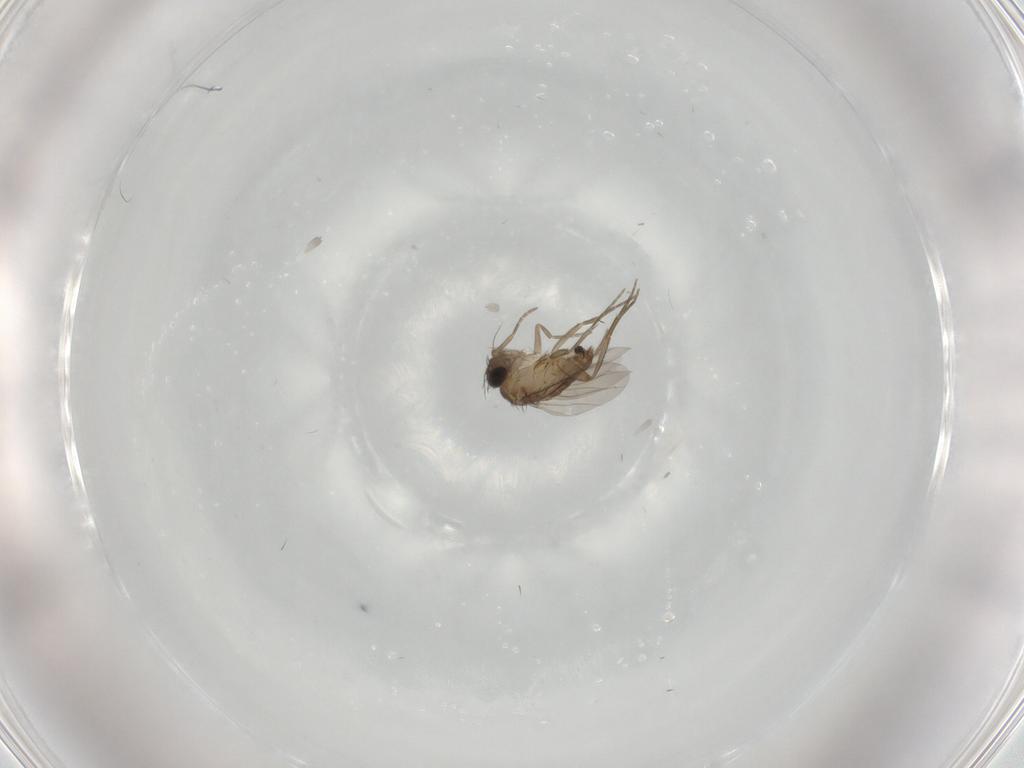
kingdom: Animalia
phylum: Arthropoda
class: Insecta
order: Diptera
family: Phoridae
